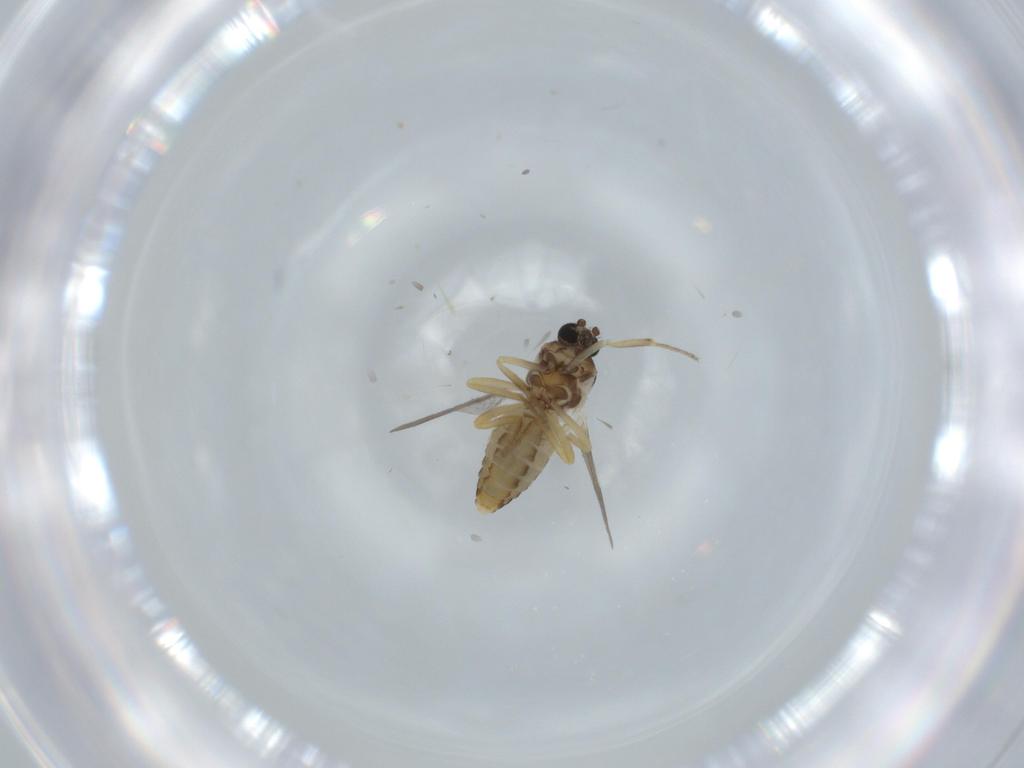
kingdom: Animalia
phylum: Arthropoda
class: Insecta
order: Diptera
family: Ceratopogonidae
